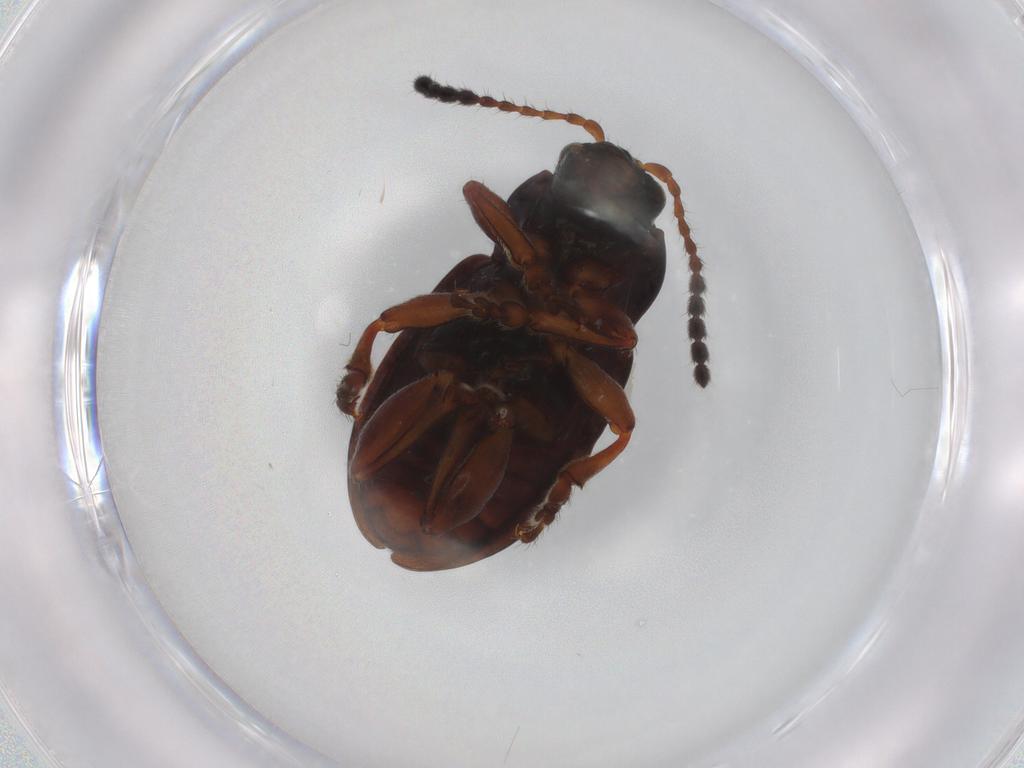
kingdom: Animalia
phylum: Arthropoda
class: Insecta
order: Coleoptera
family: Chrysomelidae
